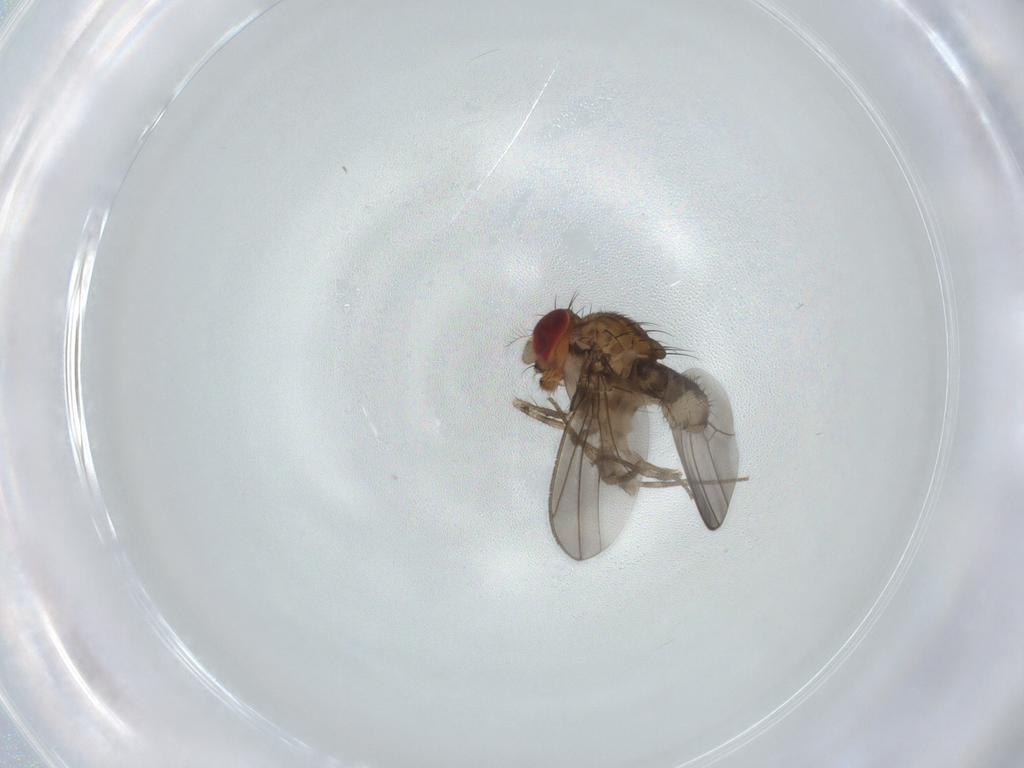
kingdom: Animalia
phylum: Arthropoda
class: Insecta
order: Diptera
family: Drosophilidae
